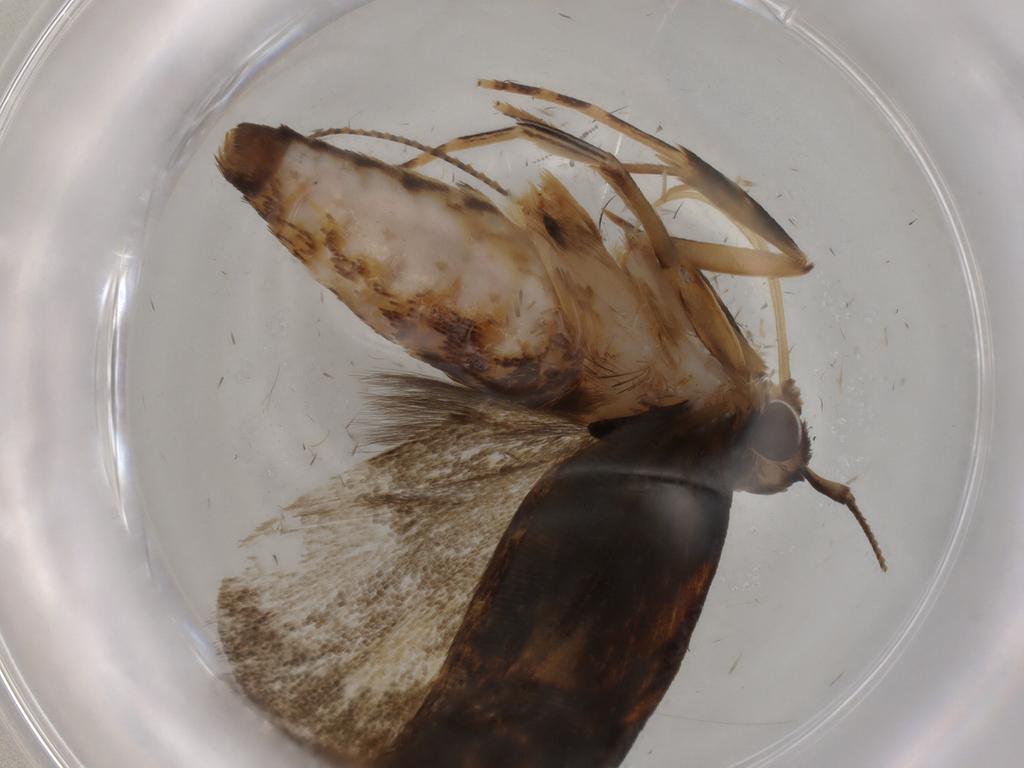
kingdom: Animalia
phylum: Arthropoda
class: Insecta
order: Lepidoptera
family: Gelechiidae
